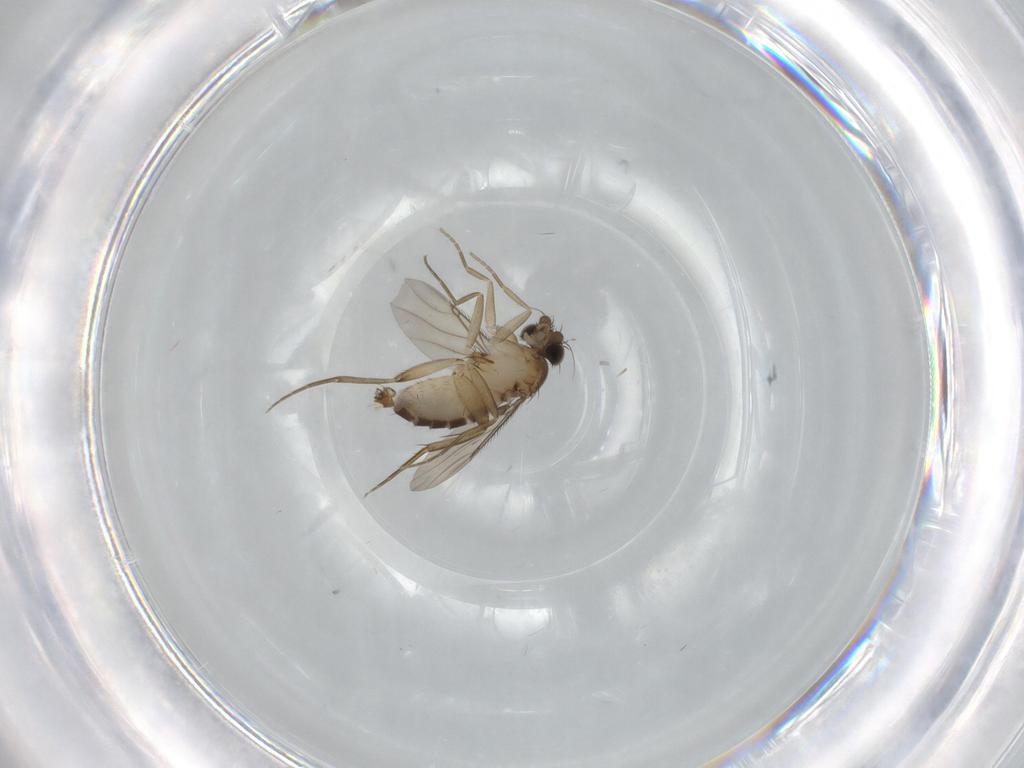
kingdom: Animalia
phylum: Arthropoda
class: Insecta
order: Diptera
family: Phoridae
